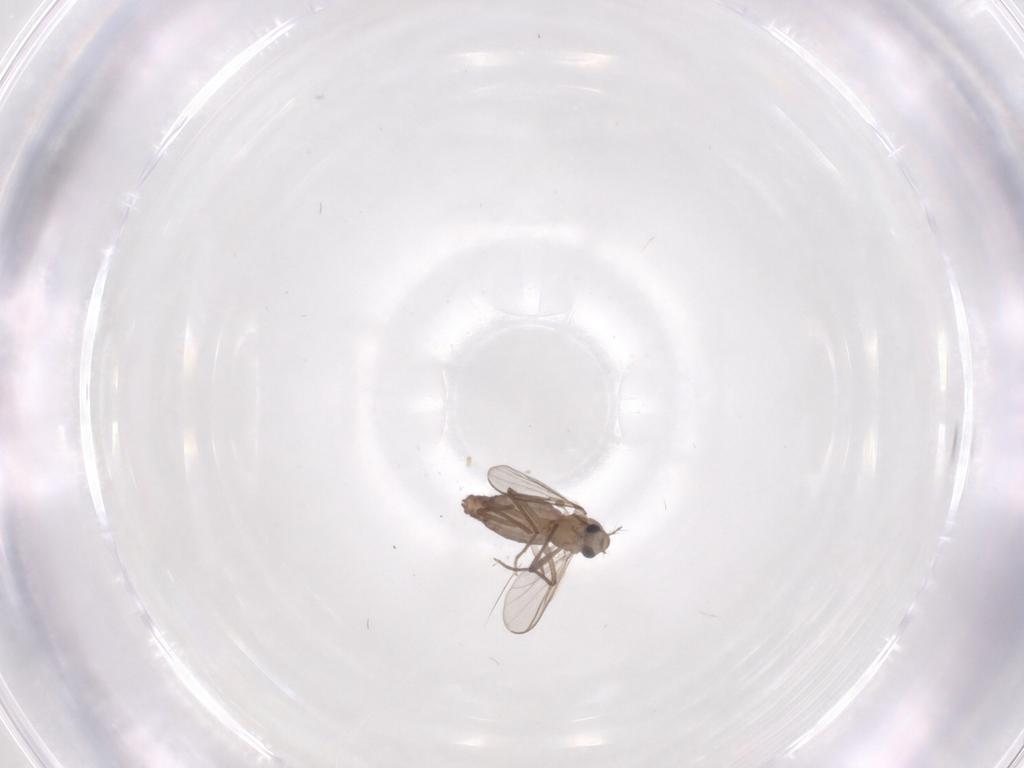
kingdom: Animalia
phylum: Arthropoda
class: Insecta
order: Diptera
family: Chironomidae
